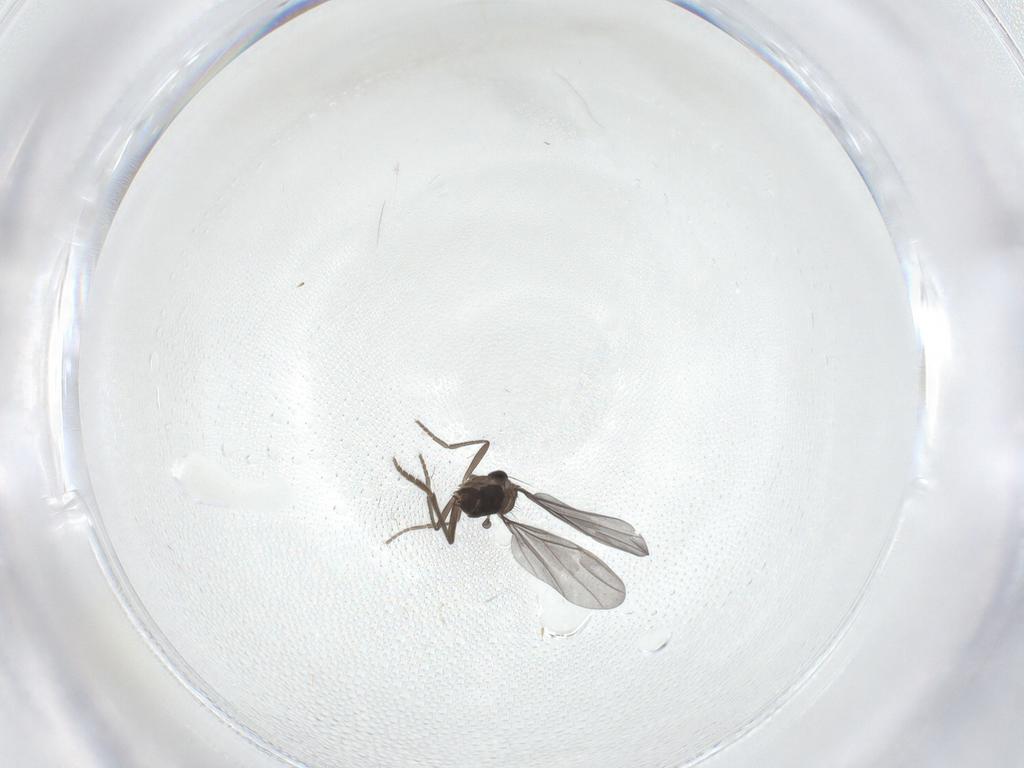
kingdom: Animalia
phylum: Arthropoda
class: Insecta
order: Diptera
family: Phoridae
